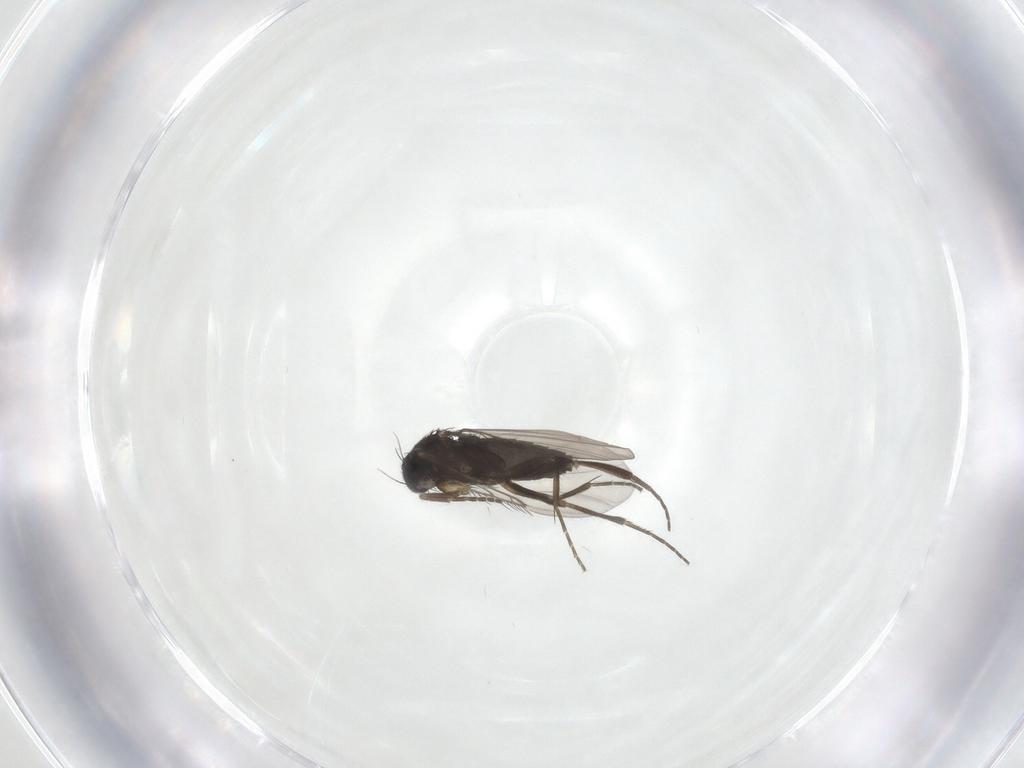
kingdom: Animalia
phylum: Arthropoda
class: Insecta
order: Diptera
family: Phoridae
